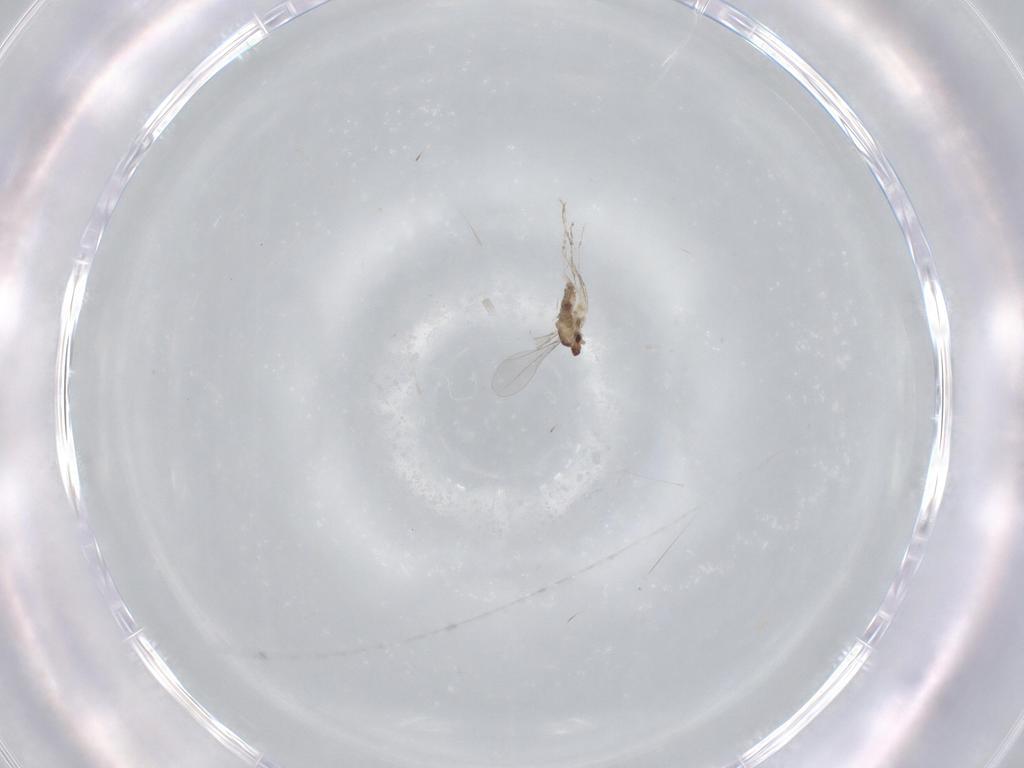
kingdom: Animalia
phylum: Arthropoda
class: Insecta
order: Diptera
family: Cecidomyiidae
